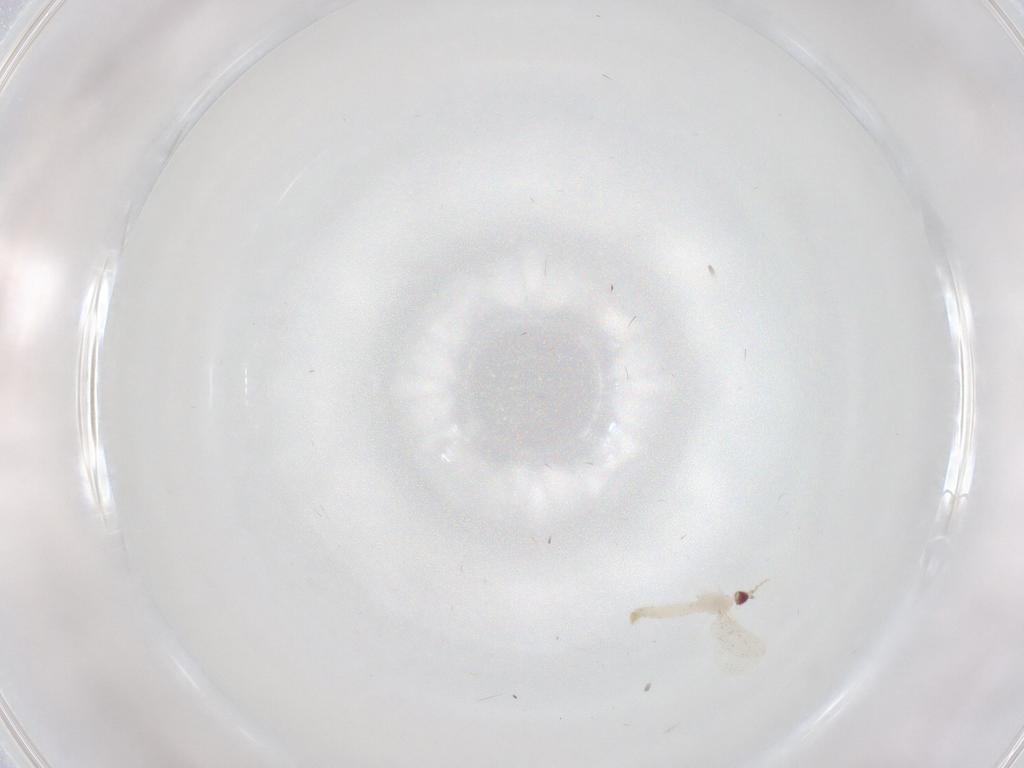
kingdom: Animalia
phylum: Arthropoda
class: Insecta
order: Diptera
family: Cecidomyiidae
